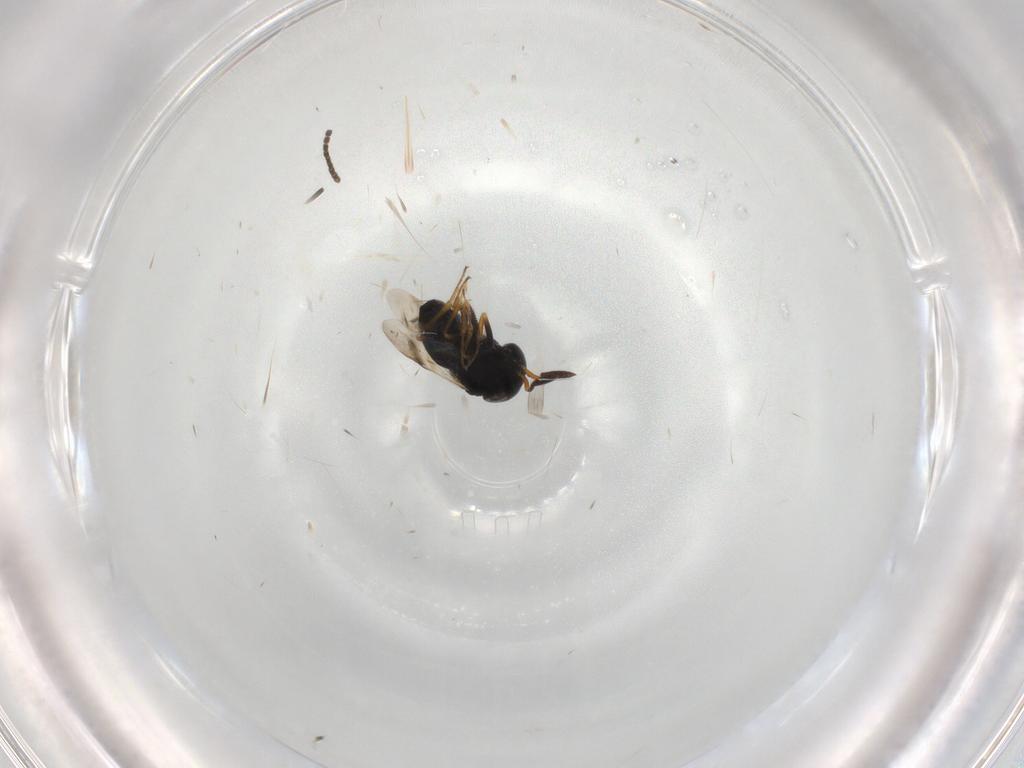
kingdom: Animalia
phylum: Arthropoda
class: Insecta
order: Hymenoptera
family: Scelionidae
